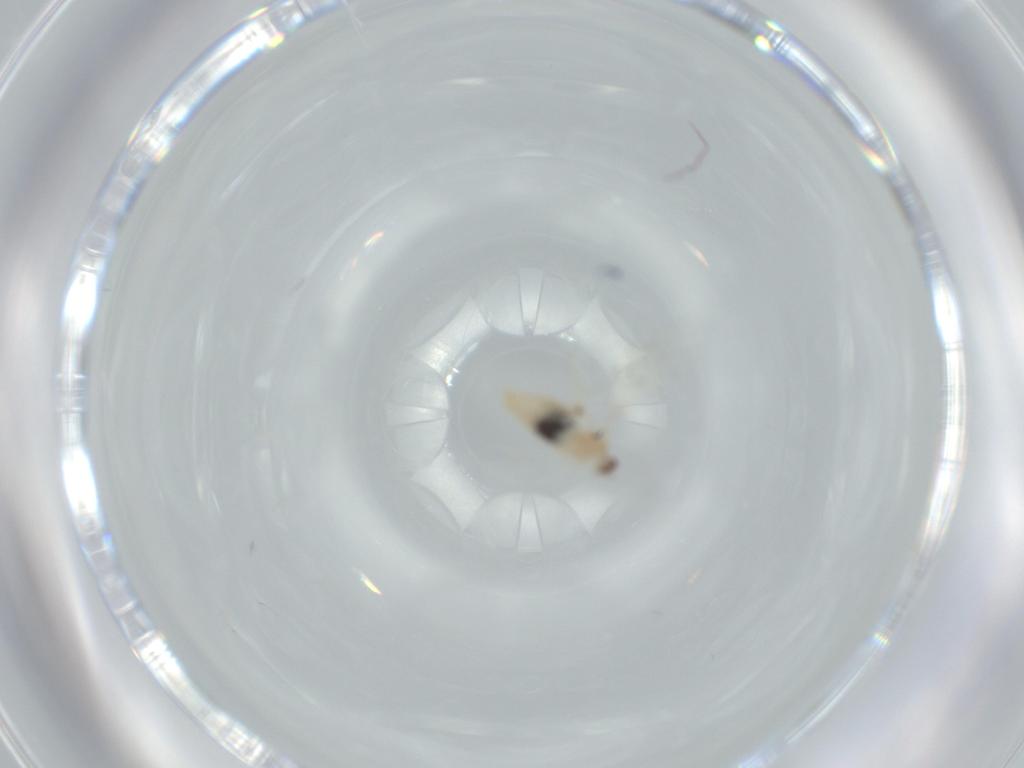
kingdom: Animalia
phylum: Arthropoda
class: Insecta
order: Diptera
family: Cecidomyiidae
